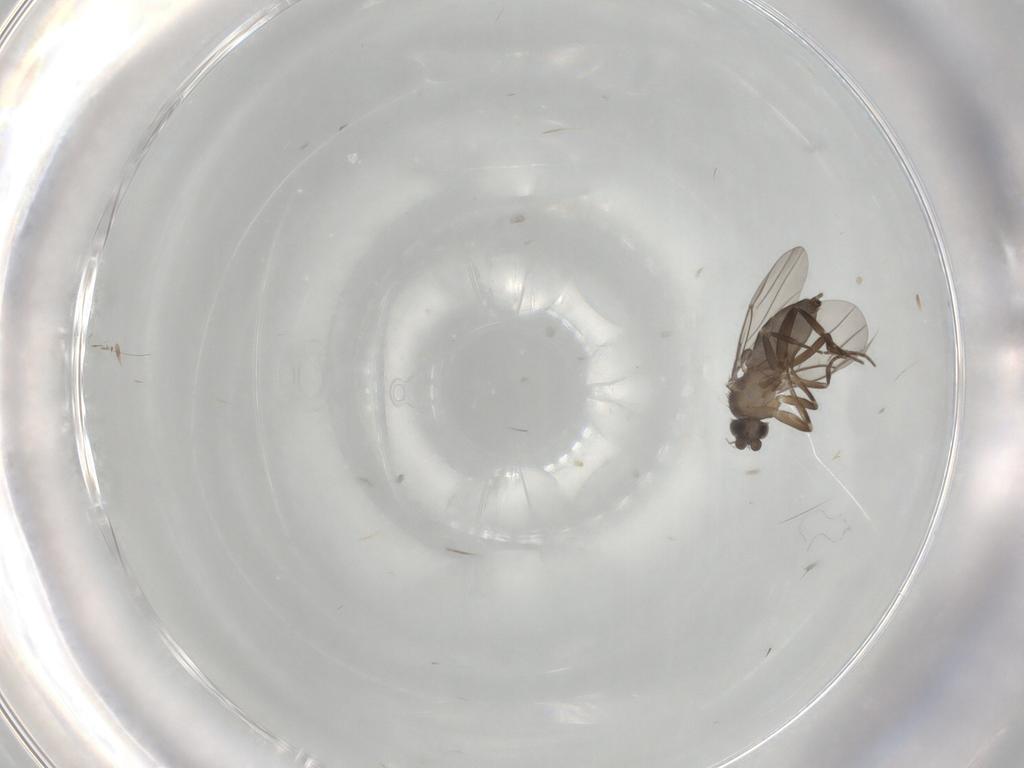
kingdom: Animalia
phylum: Arthropoda
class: Insecta
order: Diptera
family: Phoridae
